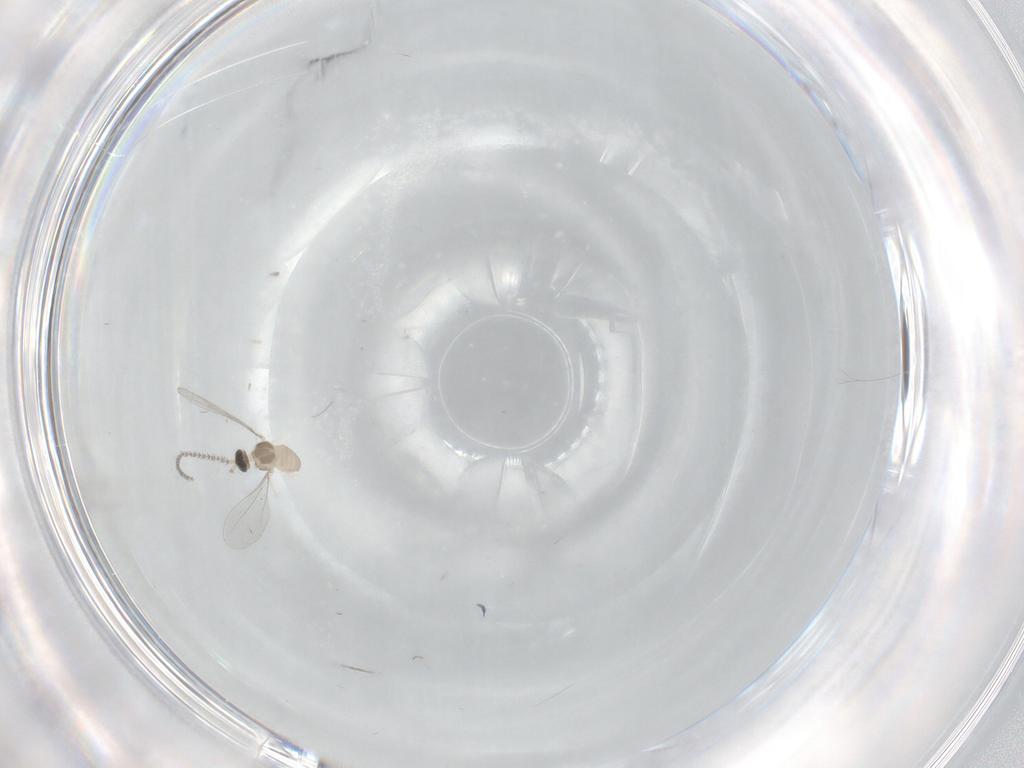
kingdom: Animalia
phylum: Arthropoda
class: Insecta
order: Diptera
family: Cecidomyiidae
